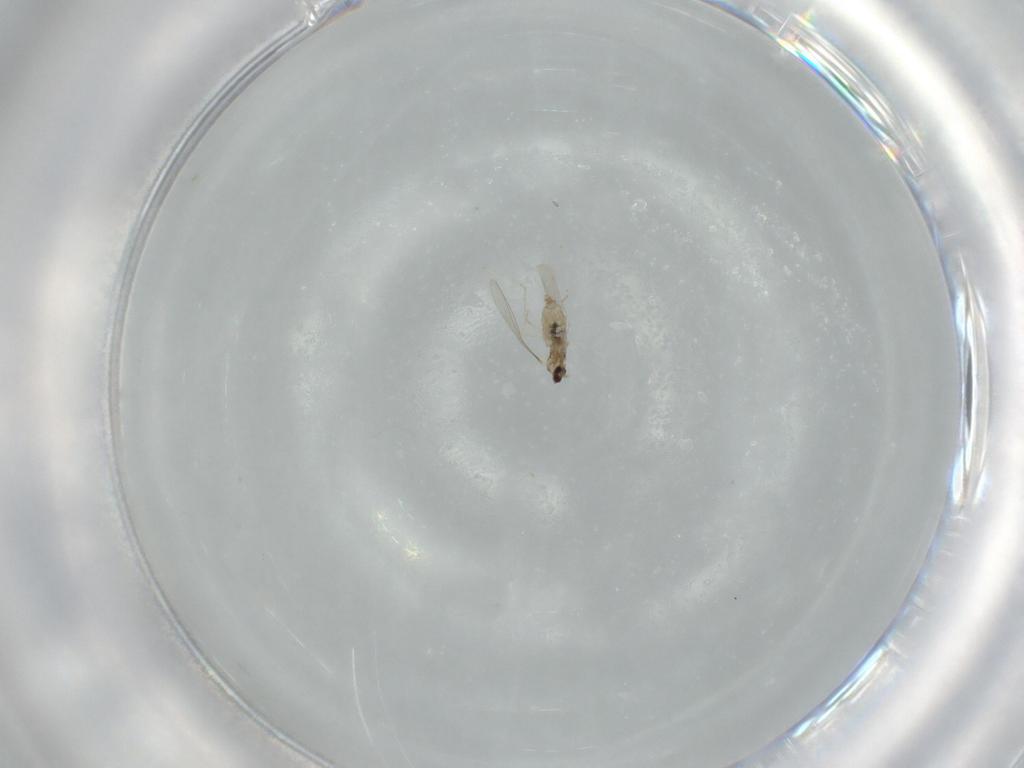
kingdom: Animalia
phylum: Arthropoda
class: Insecta
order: Diptera
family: Cecidomyiidae
